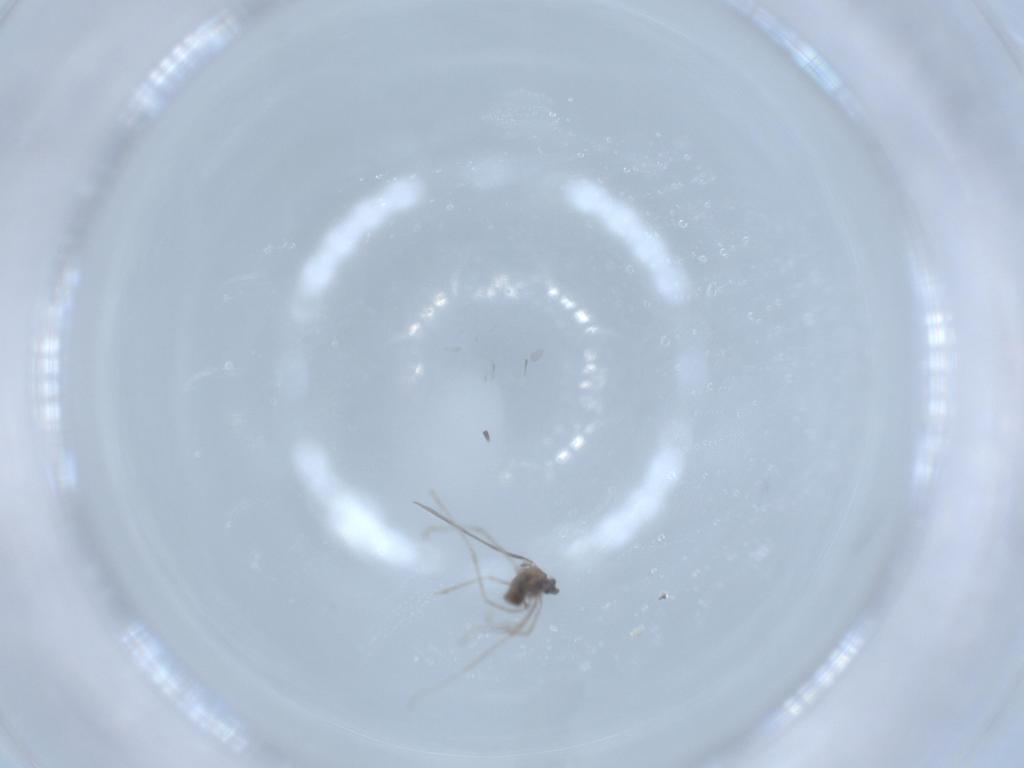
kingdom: Animalia
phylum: Arthropoda
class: Insecta
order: Diptera
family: Cecidomyiidae
